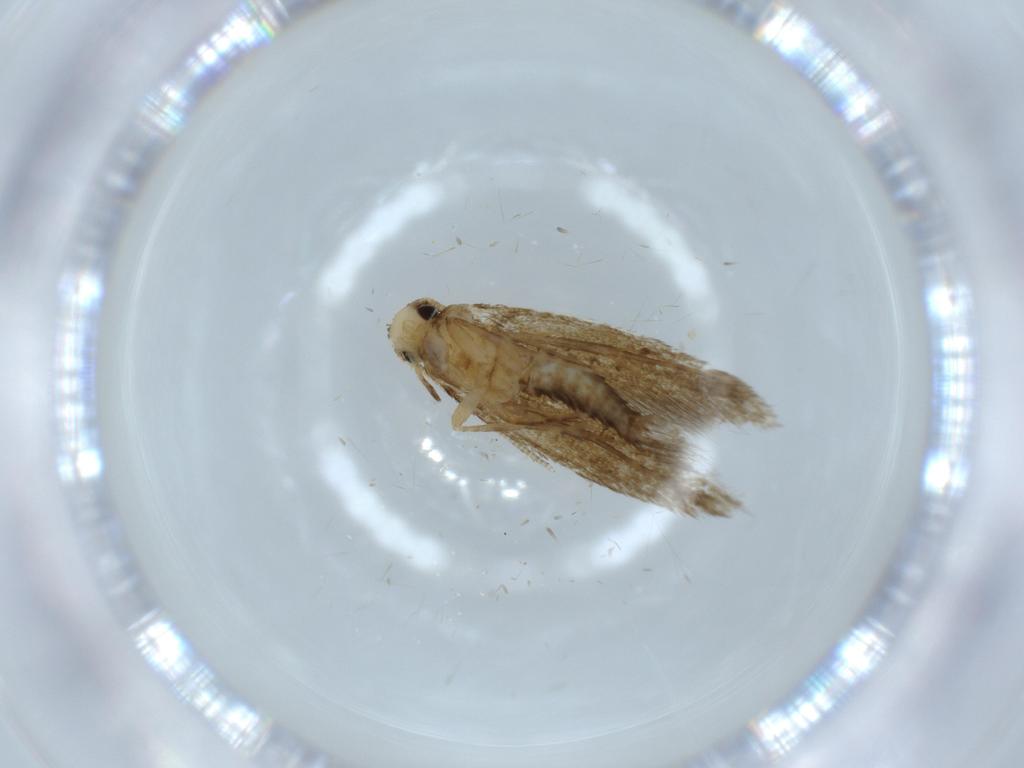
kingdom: Animalia
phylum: Arthropoda
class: Insecta
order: Lepidoptera
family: Tineidae
